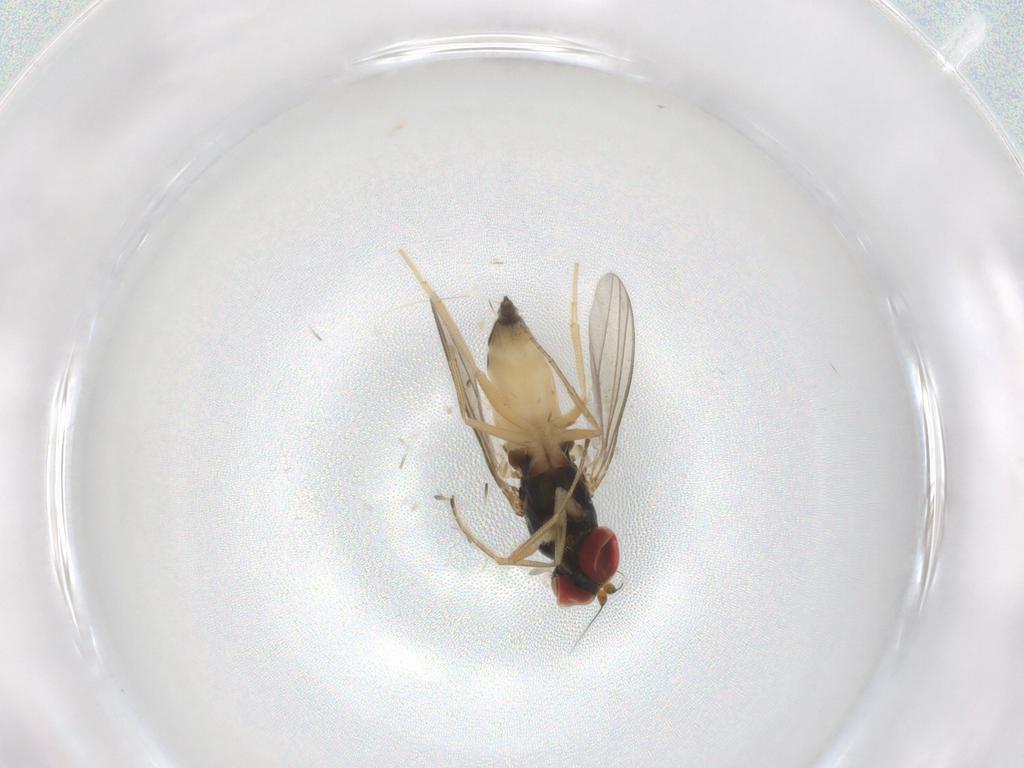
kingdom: Animalia
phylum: Arthropoda
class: Insecta
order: Diptera
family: Dolichopodidae
